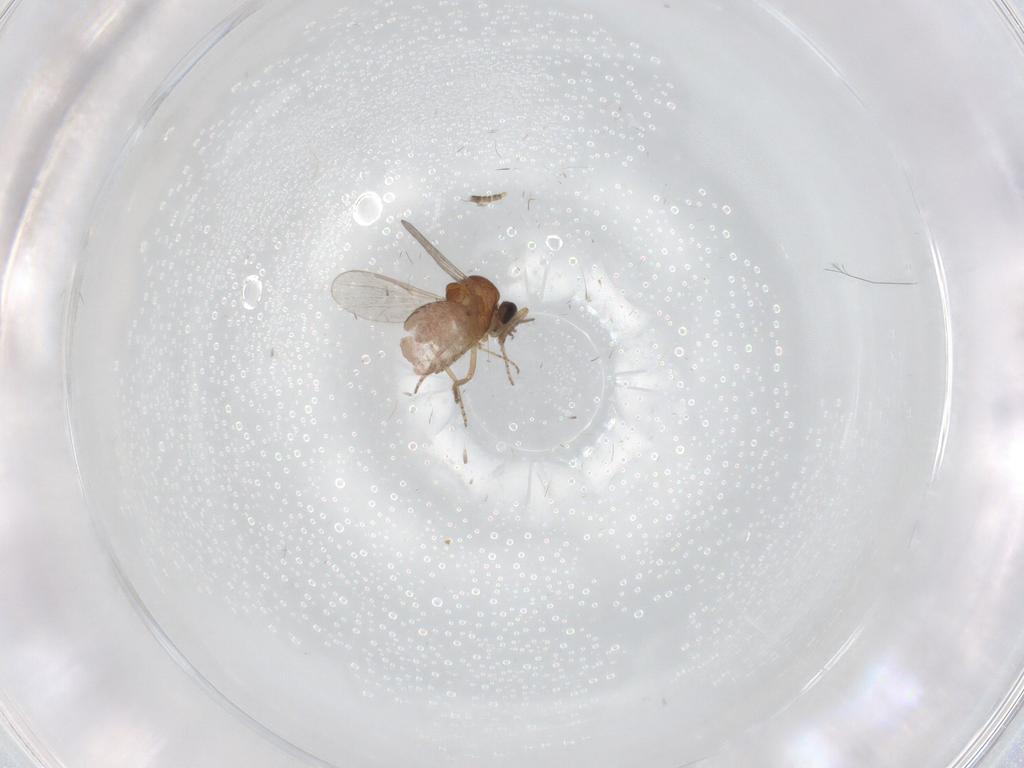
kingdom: Animalia
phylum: Arthropoda
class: Insecta
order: Diptera
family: Ceratopogonidae
